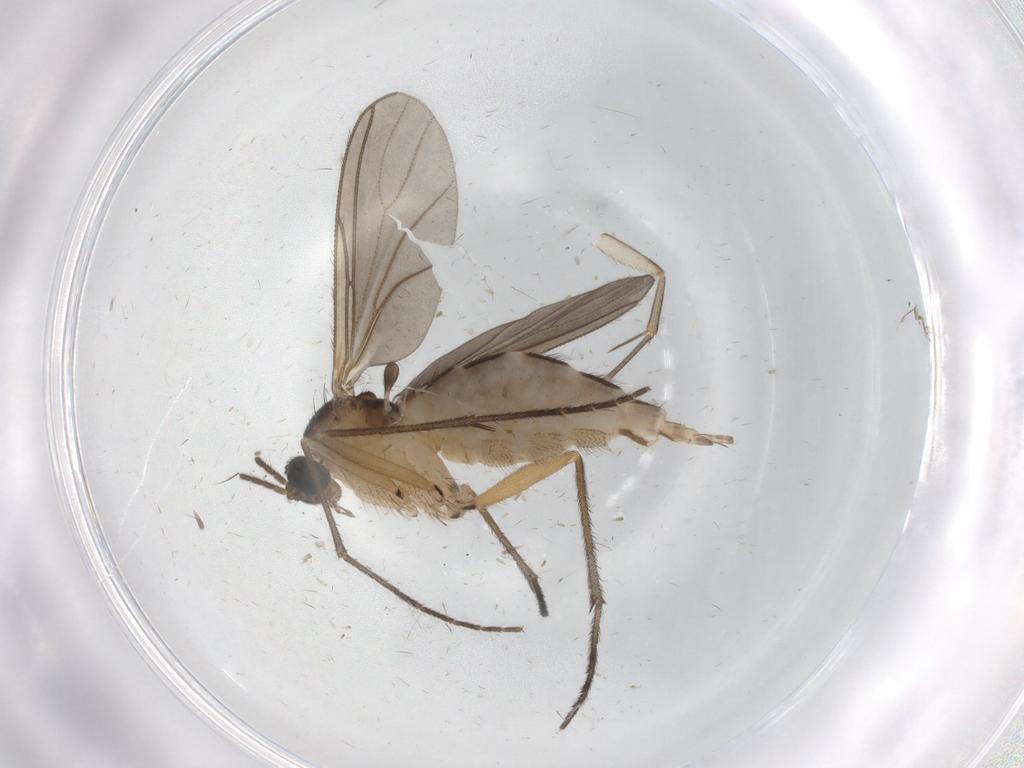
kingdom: Animalia
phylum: Arthropoda
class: Insecta
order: Diptera
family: Sciaridae
